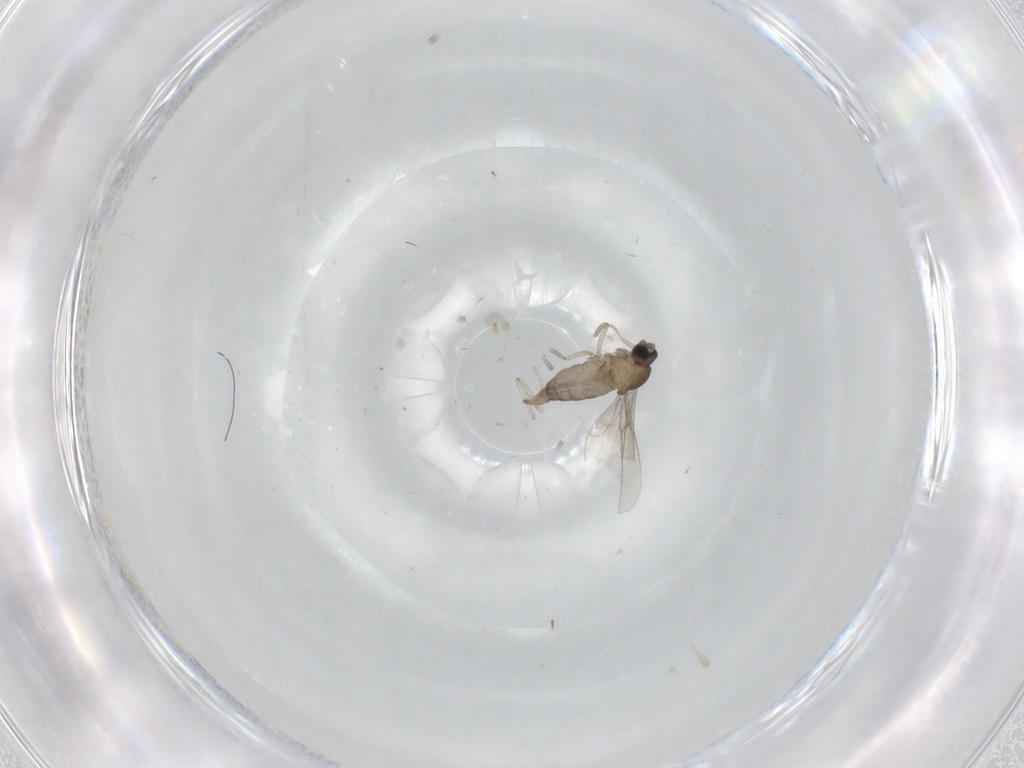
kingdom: Animalia
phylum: Arthropoda
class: Insecta
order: Diptera
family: Cecidomyiidae
